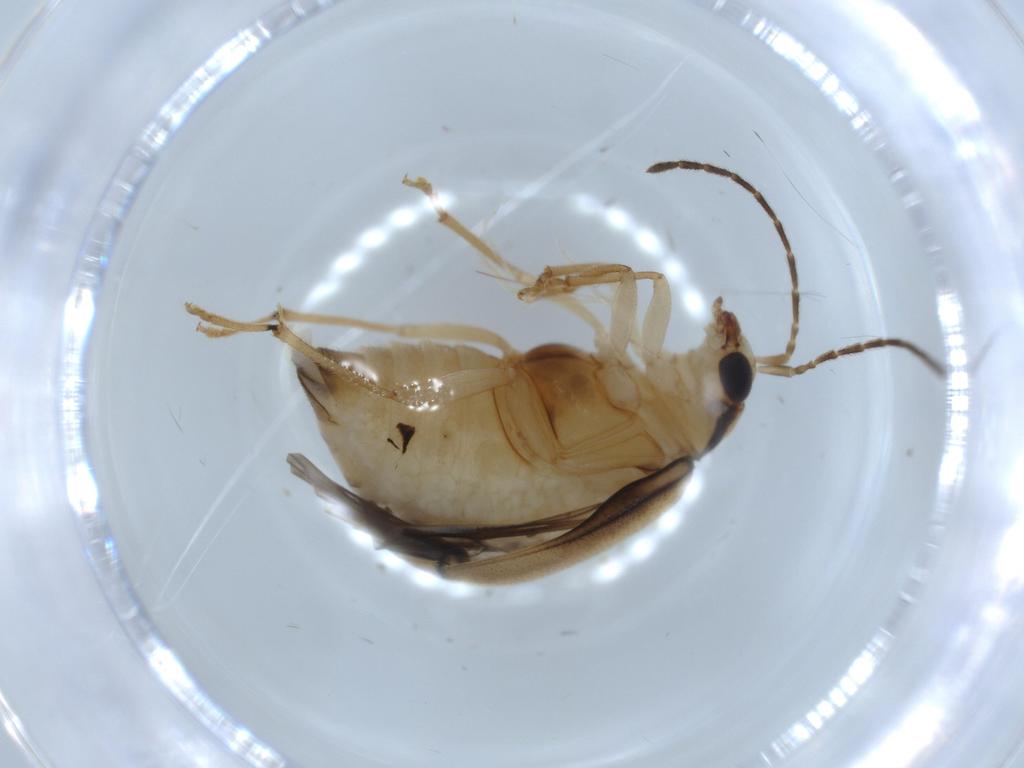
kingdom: Animalia
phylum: Arthropoda
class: Insecta
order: Coleoptera
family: Chrysomelidae
